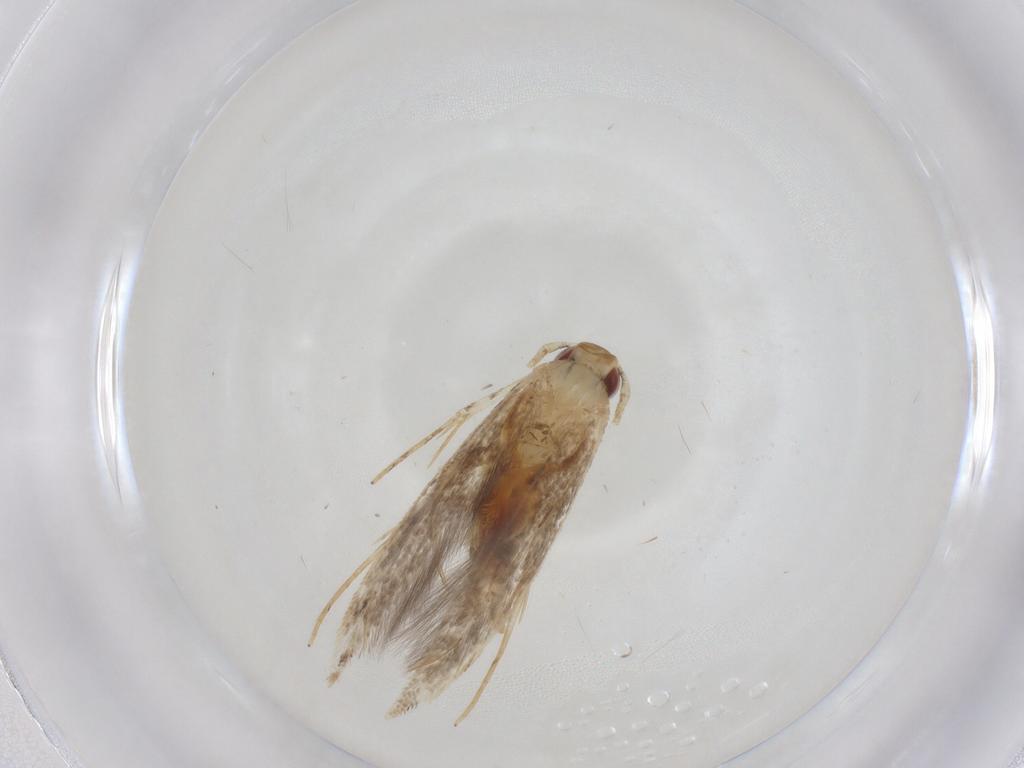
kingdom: Animalia
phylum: Arthropoda
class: Insecta
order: Lepidoptera
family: Cosmopterigidae
